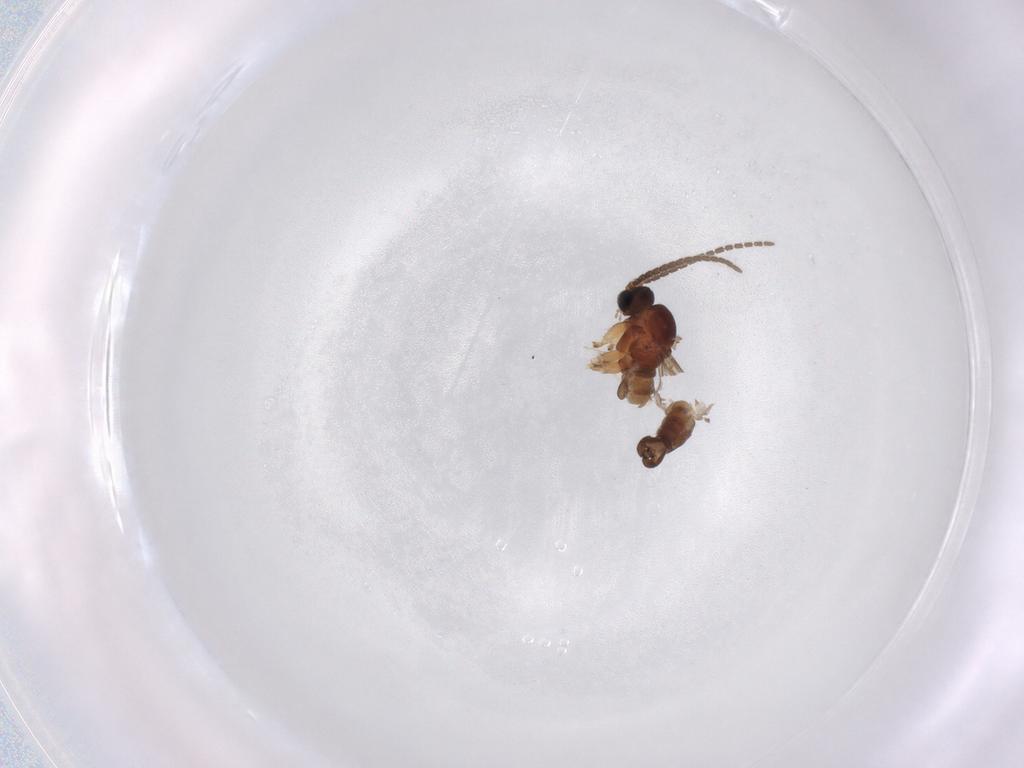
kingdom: Animalia
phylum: Arthropoda
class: Insecta
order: Diptera
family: Sciaridae
